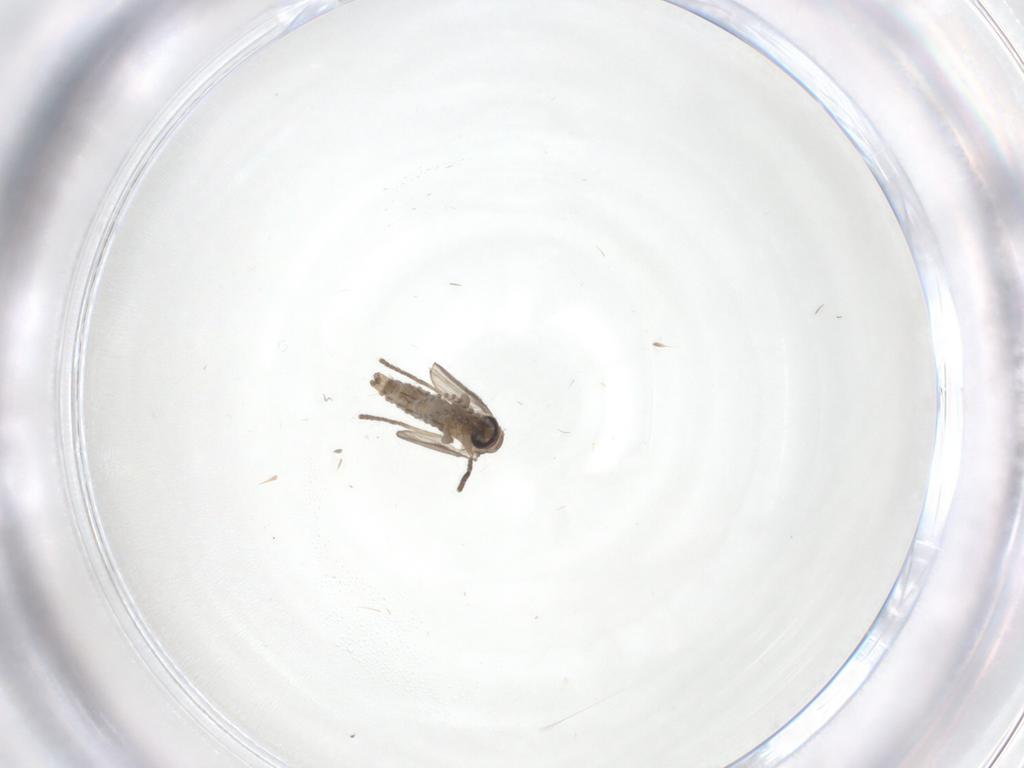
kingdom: Animalia
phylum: Arthropoda
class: Insecta
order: Diptera
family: Psychodidae
